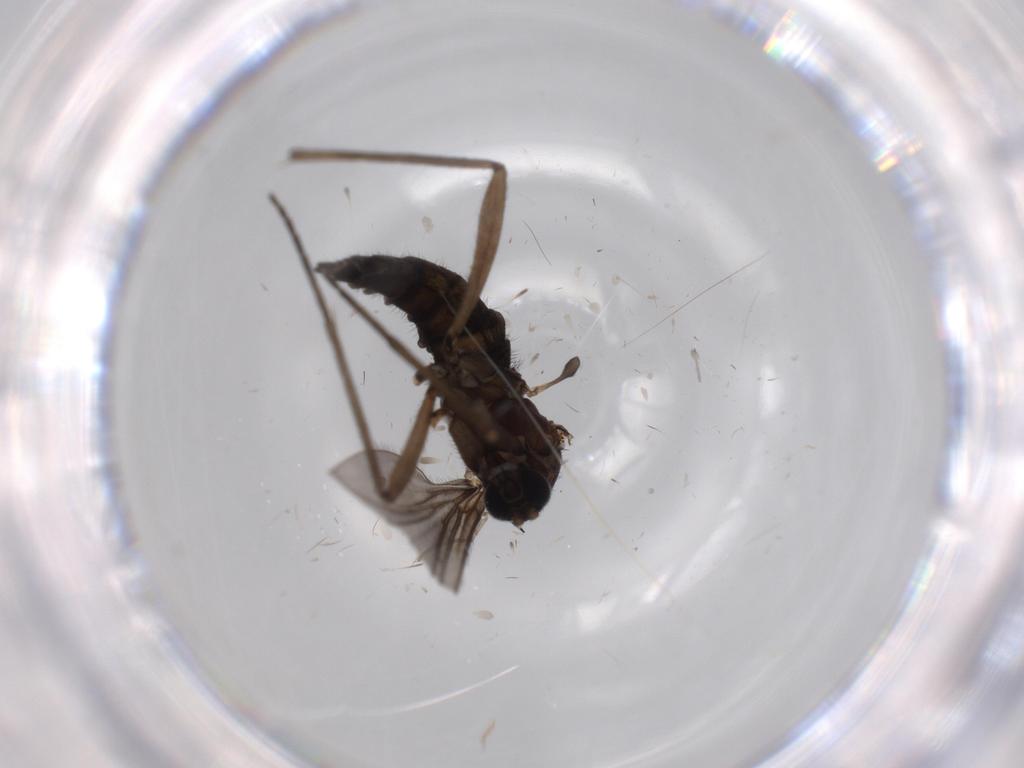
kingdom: Animalia
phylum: Arthropoda
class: Insecta
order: Diptera
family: Sciaridae
